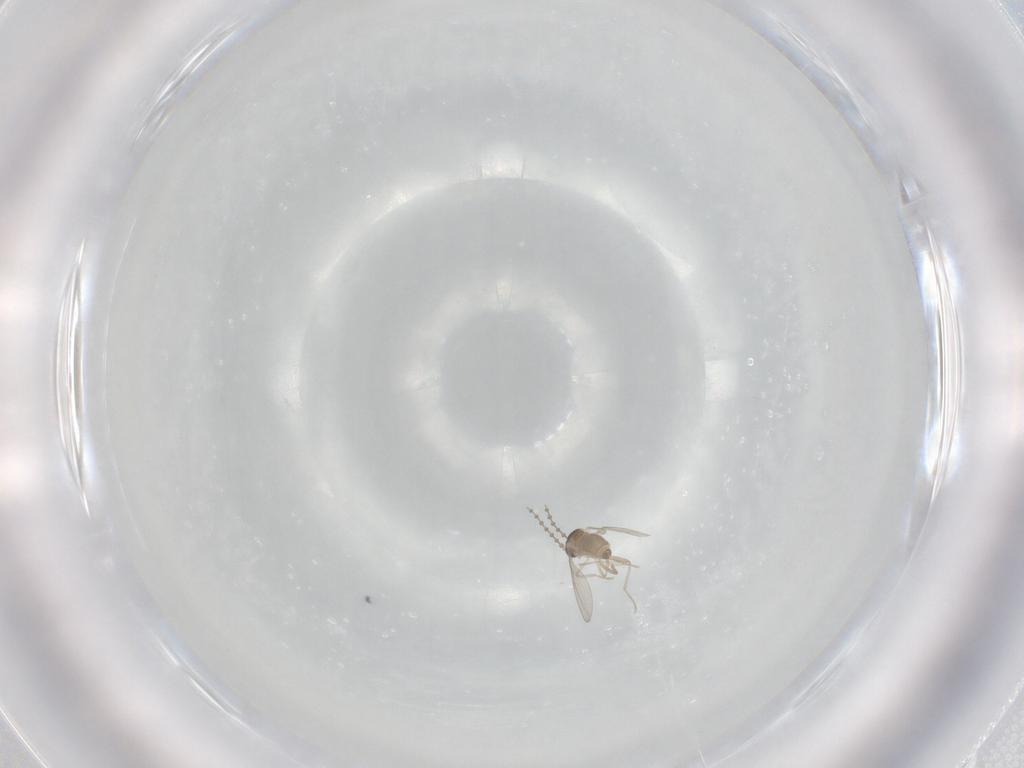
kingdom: Animalia
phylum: Arthropoda
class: Insecta
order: Diptera
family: Cecidomyiidae
